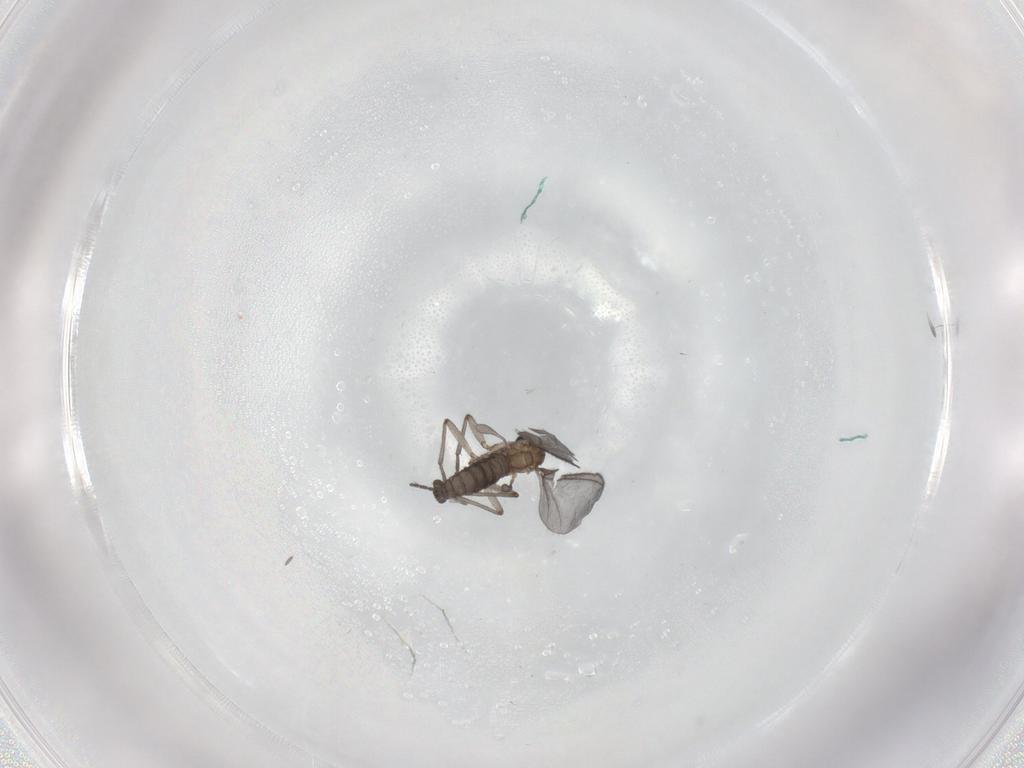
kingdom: Animalia
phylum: Arthropoda
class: Insecta
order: Diptera
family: Sciaridae
